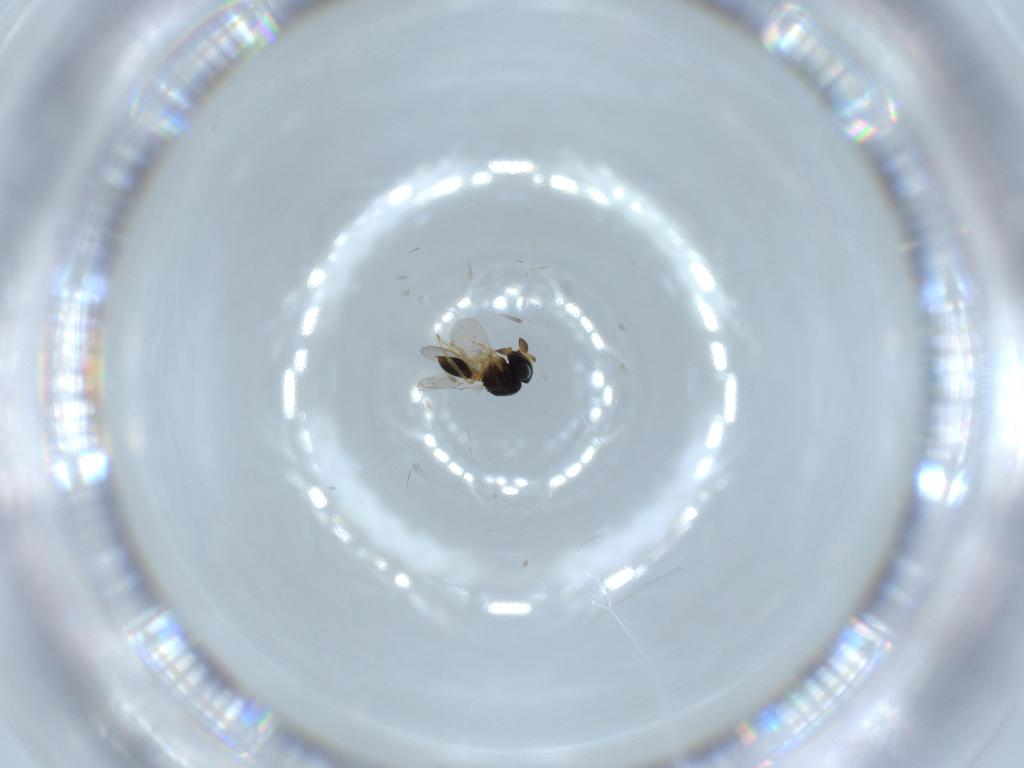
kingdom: Animalia
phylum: Arthropoda
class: Insecta
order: Hymenoptera
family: Scelionidae
